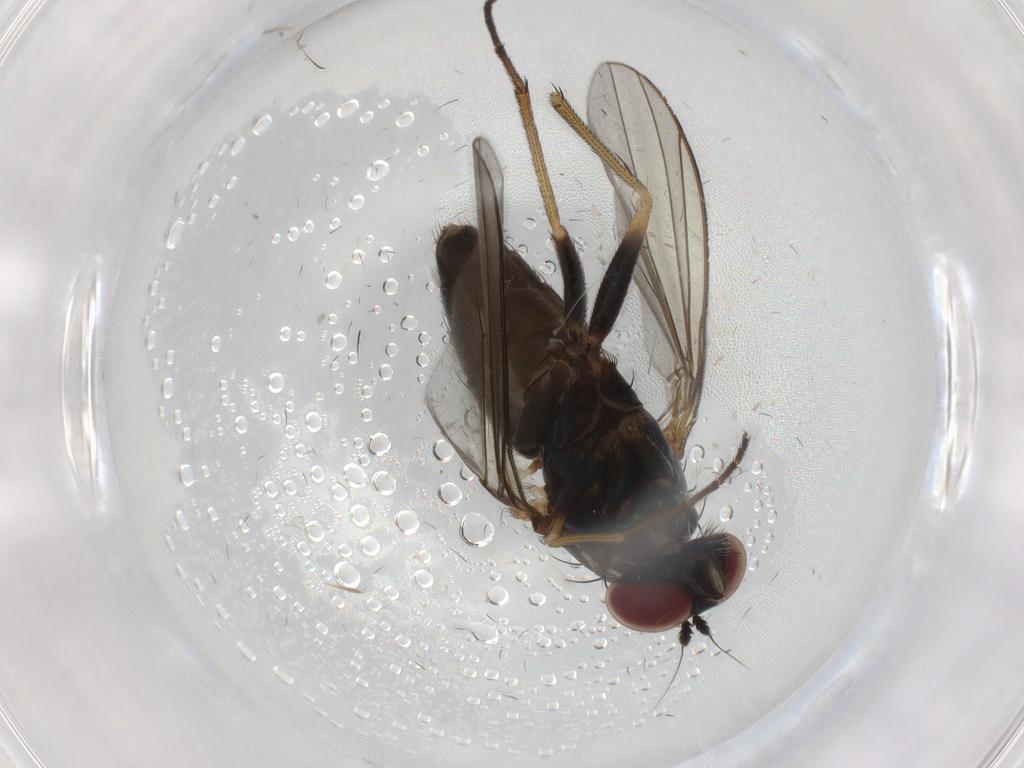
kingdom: Animalia
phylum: Arthropoda
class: Insecta
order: Diptera
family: Dolichopodidae
